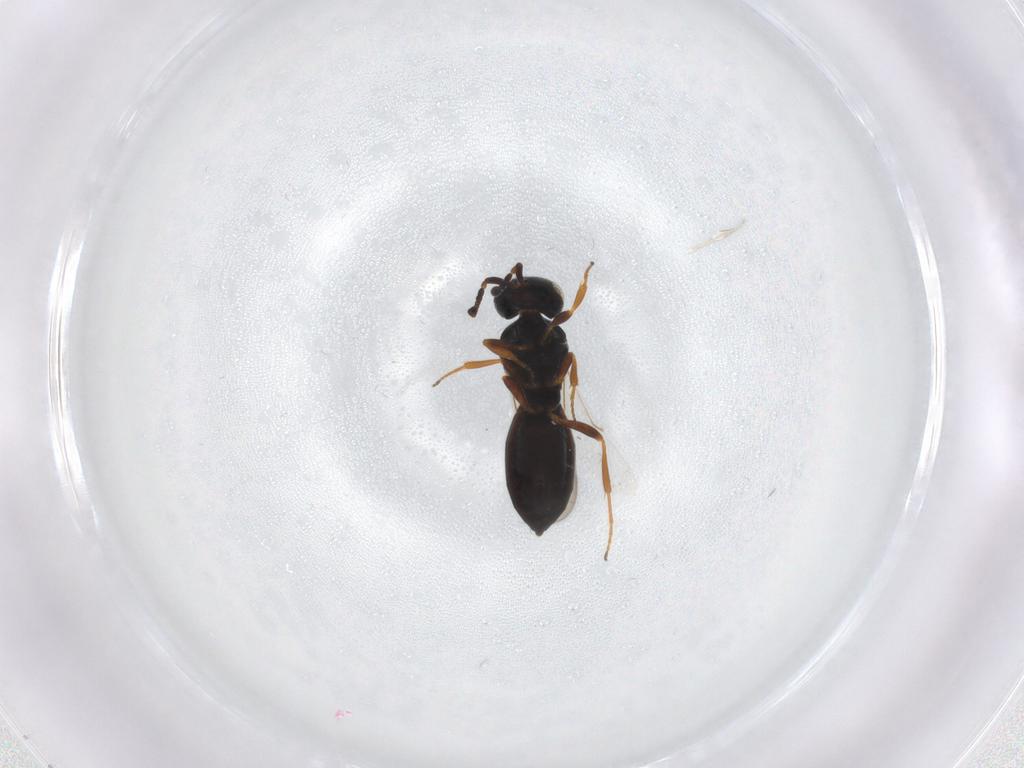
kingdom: Animalia
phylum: Arthropoda
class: Insecta
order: Hymenoptera
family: Scelionidae
